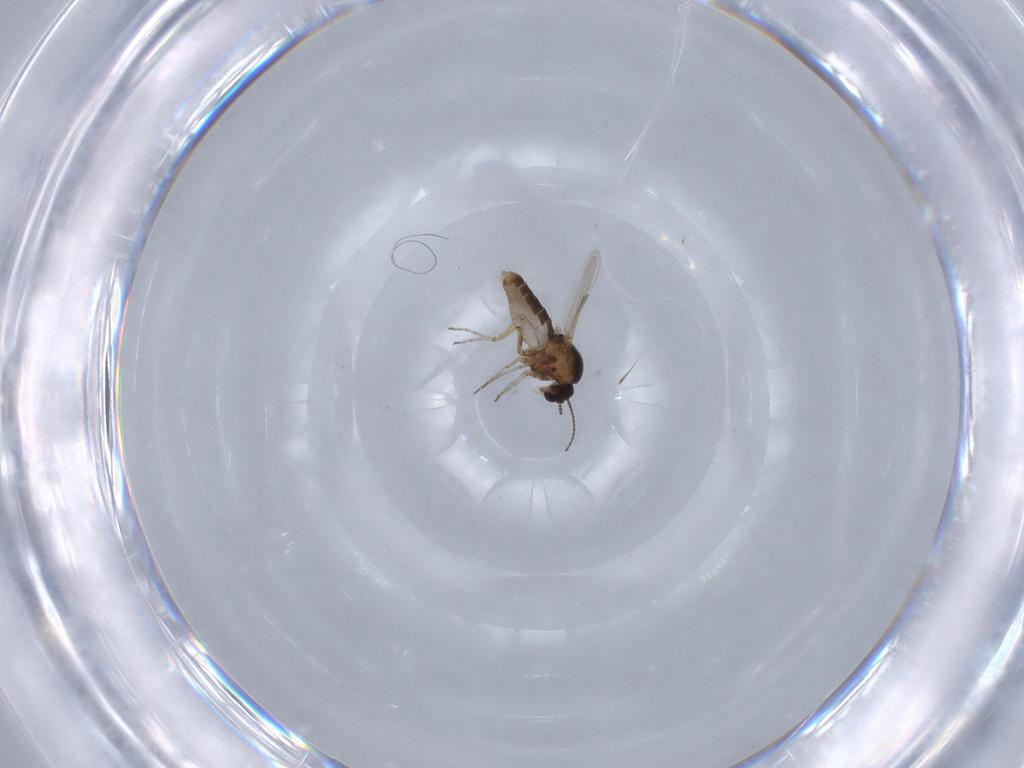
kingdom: Animalia
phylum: Arthropoda
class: Insecta
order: Diptera
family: Ceratopogonidae
